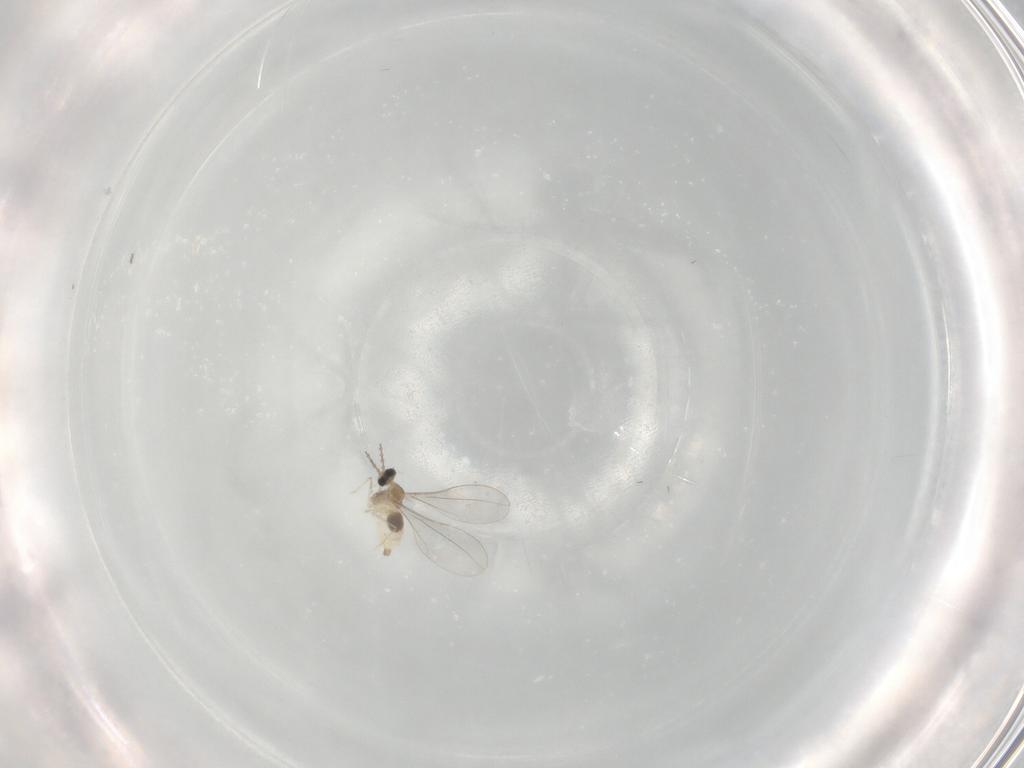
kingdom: Animalia
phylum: Arthropoda
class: Insecta
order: Diptera
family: Cecidomyiidae
